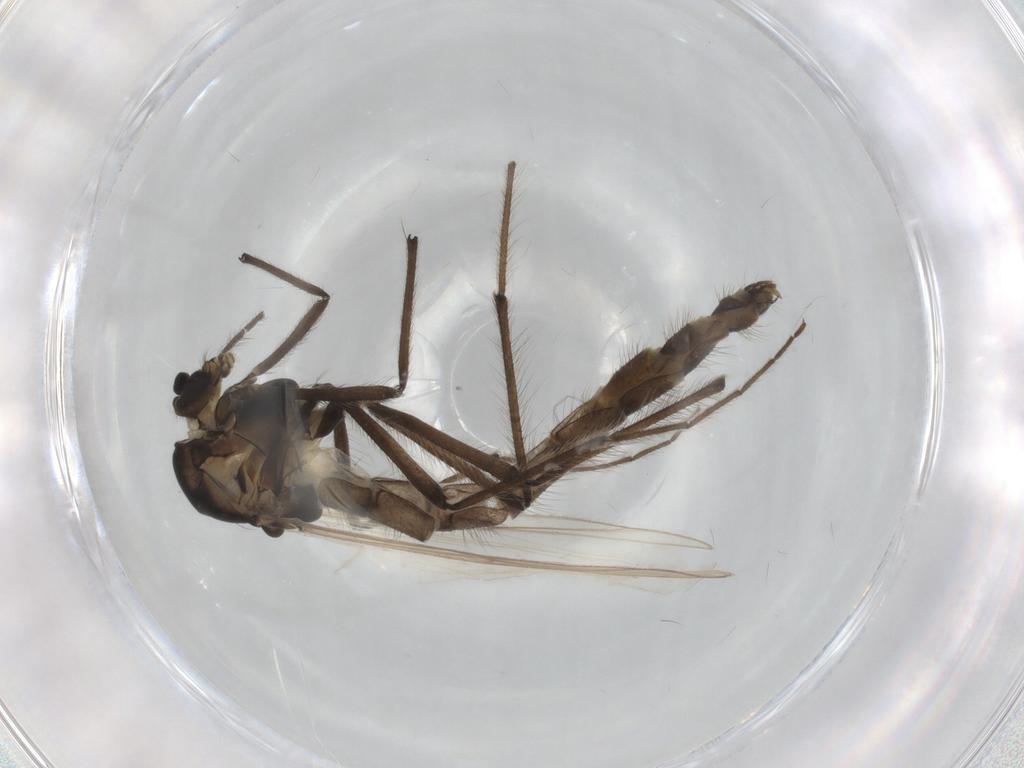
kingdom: Animalia
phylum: Arthropoda
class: Insecta
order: Diptera
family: Chironomidae
